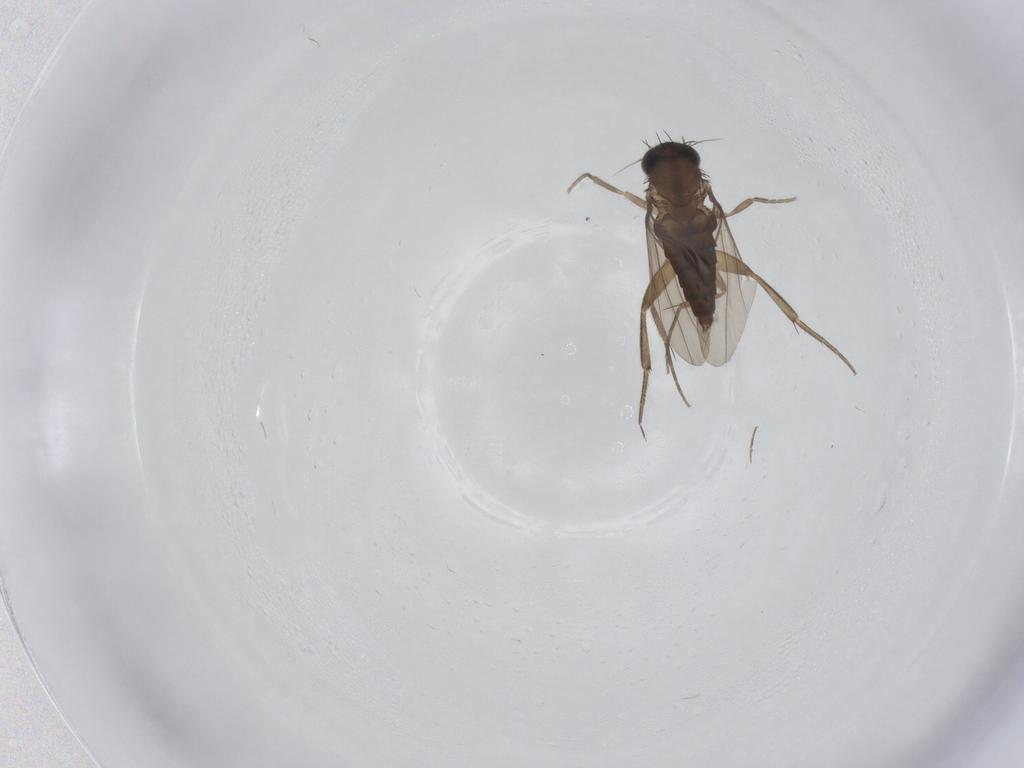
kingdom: Animalia
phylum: Arthropoda
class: Insecta
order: Diptera
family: Phoridae
